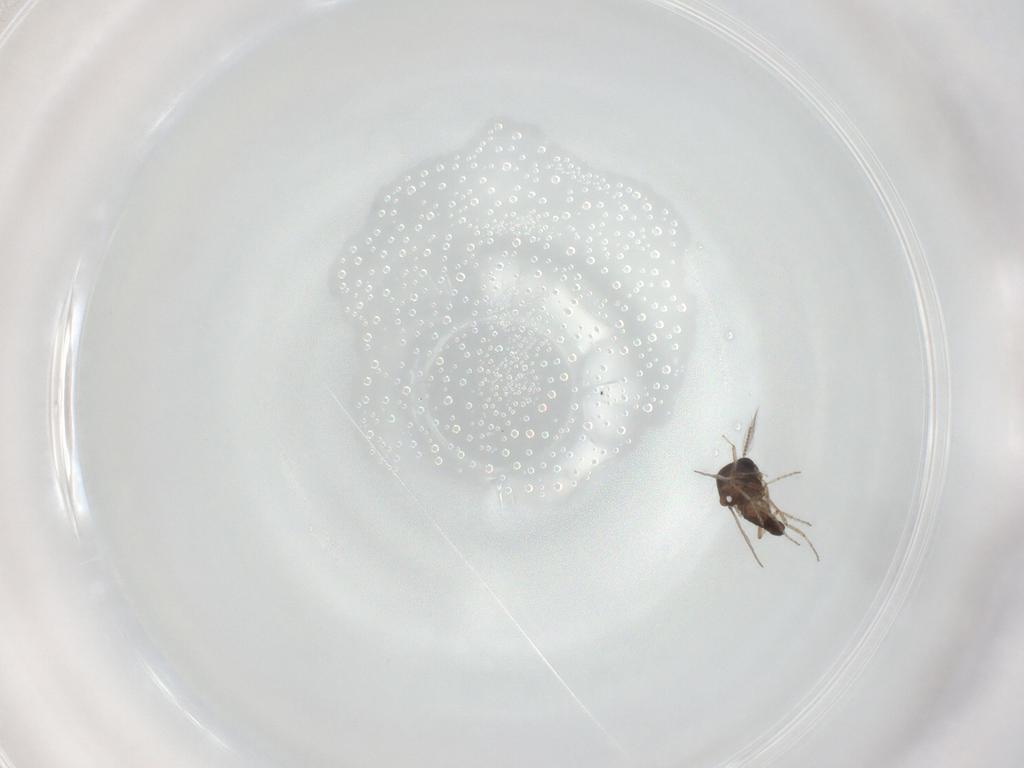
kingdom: Animalia
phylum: Arthropoda
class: Insecta
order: Diptera
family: Ceratopogonidae
